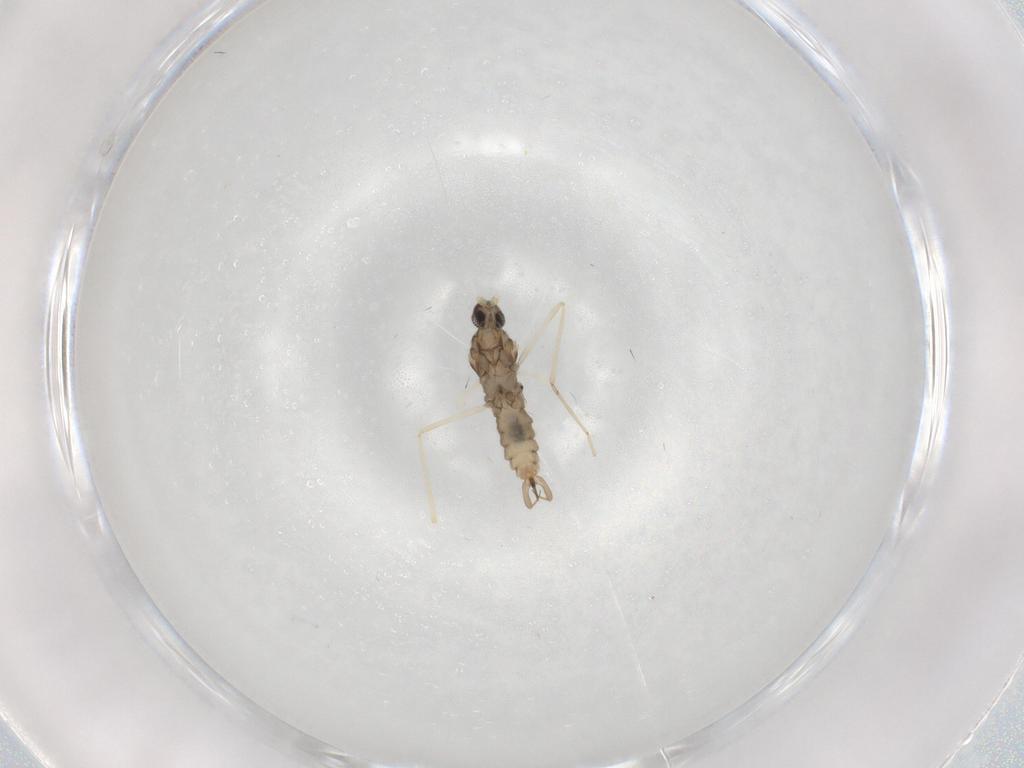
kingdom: Animalia
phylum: Arthropoda
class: Insecta
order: Diptera
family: Cecidomyiidae
